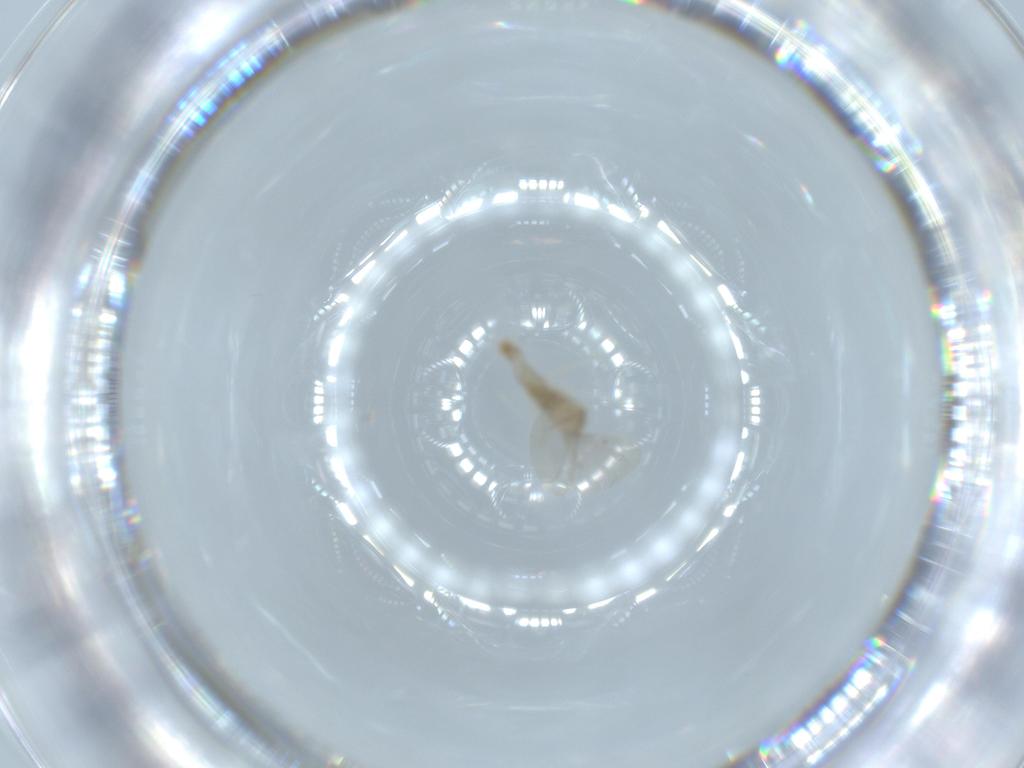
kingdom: Animalia
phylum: Arthropoda
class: Insecta
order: Diptera
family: Cecidomyiidae
